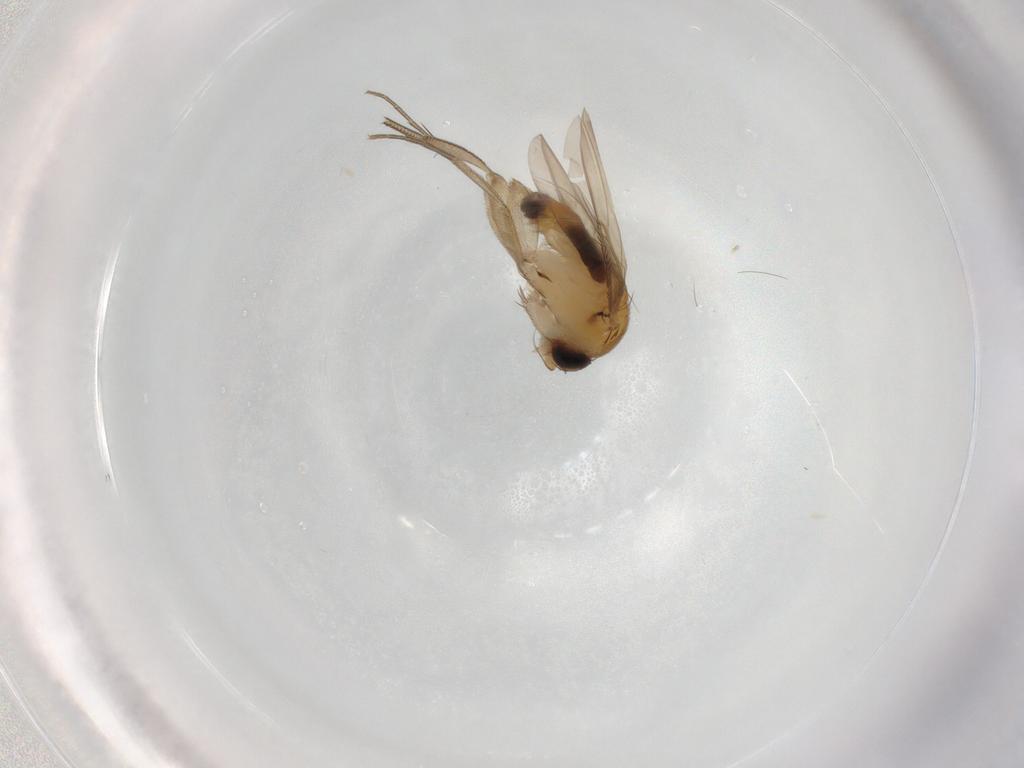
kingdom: Animalia
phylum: Arthropoda
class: Insecta
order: Diptera
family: Phoridae
